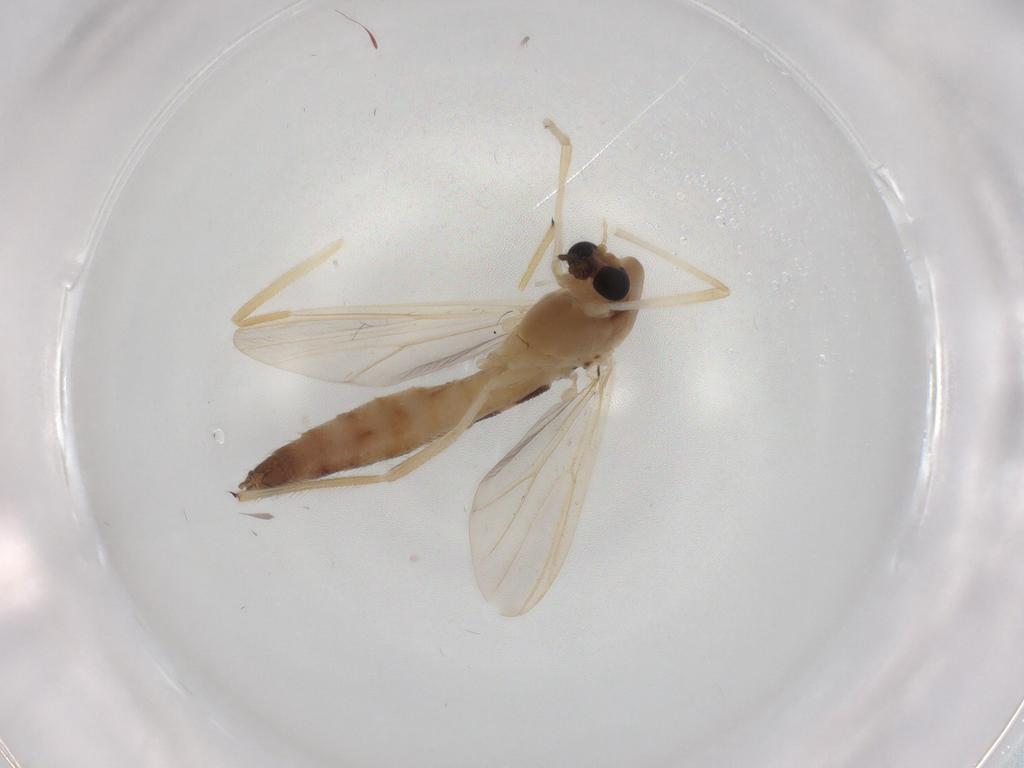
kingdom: Animalia
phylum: Arthropoda
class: Insecta
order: Diptera
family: Chironomidae
